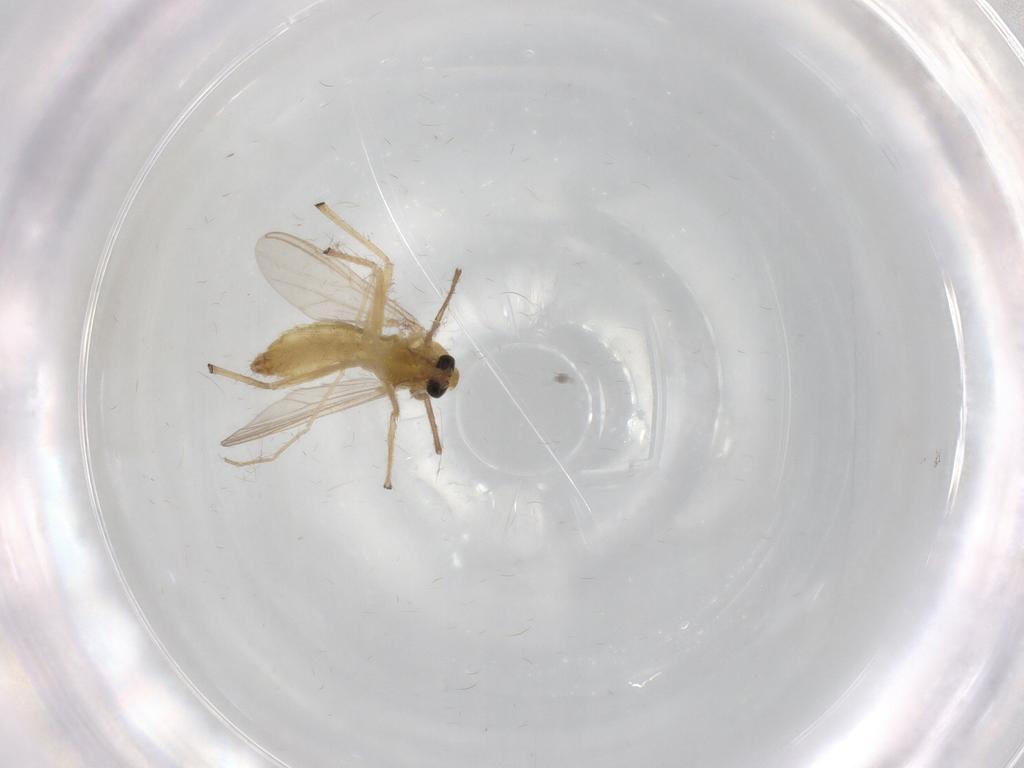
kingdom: Animalia
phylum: Arthropoda
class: Insecta
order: Diptera
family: Chironomidae
